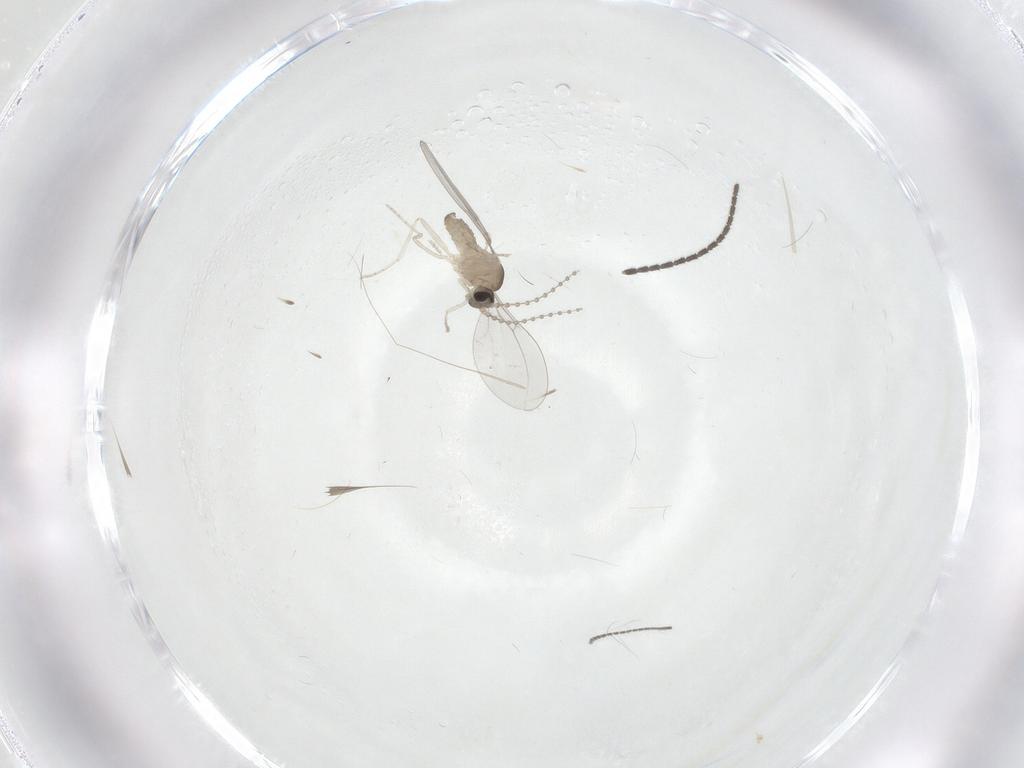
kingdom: Animalia
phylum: Arthropoda
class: Insecta
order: Diptera
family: Cecidomyiidae
